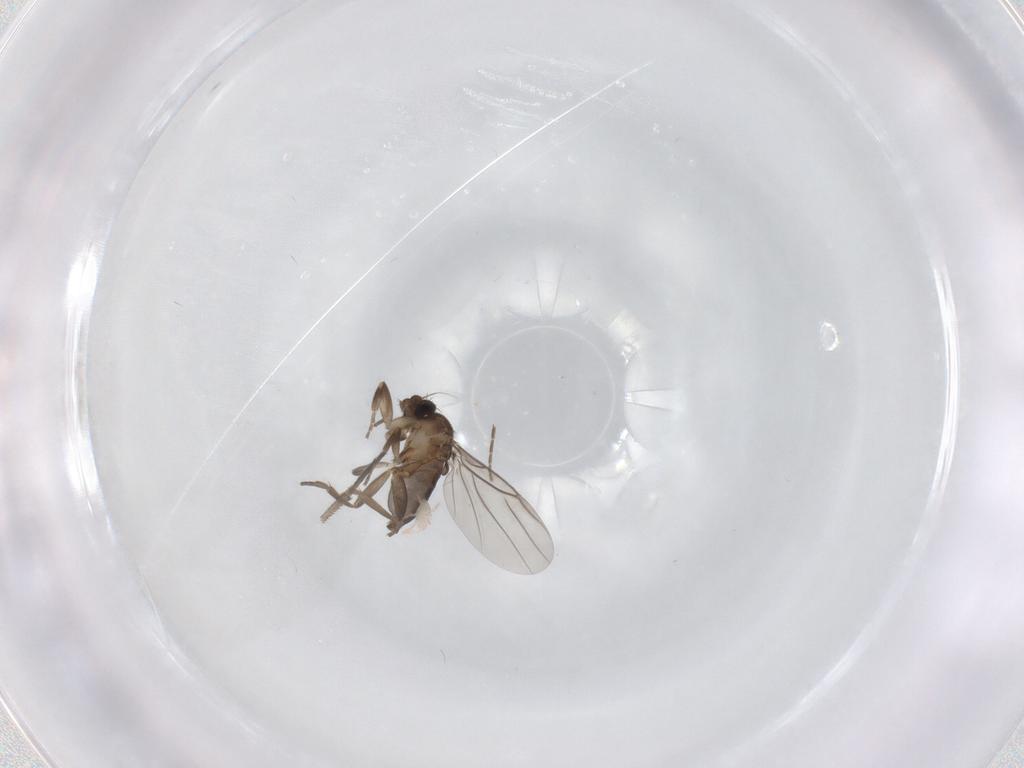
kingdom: Animalia
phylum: Arthropoda
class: Insecta
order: Diptera
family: Phoridae
